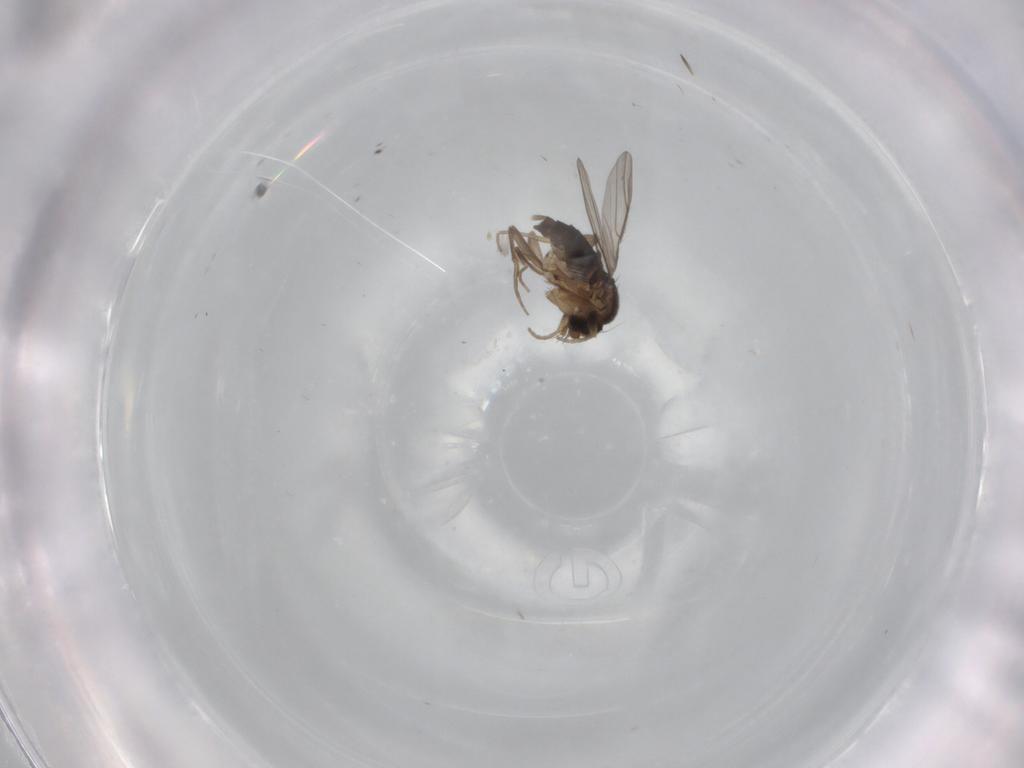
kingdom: Animalia
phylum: Arthropoda
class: Insecta
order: Diptera
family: Phoridae
